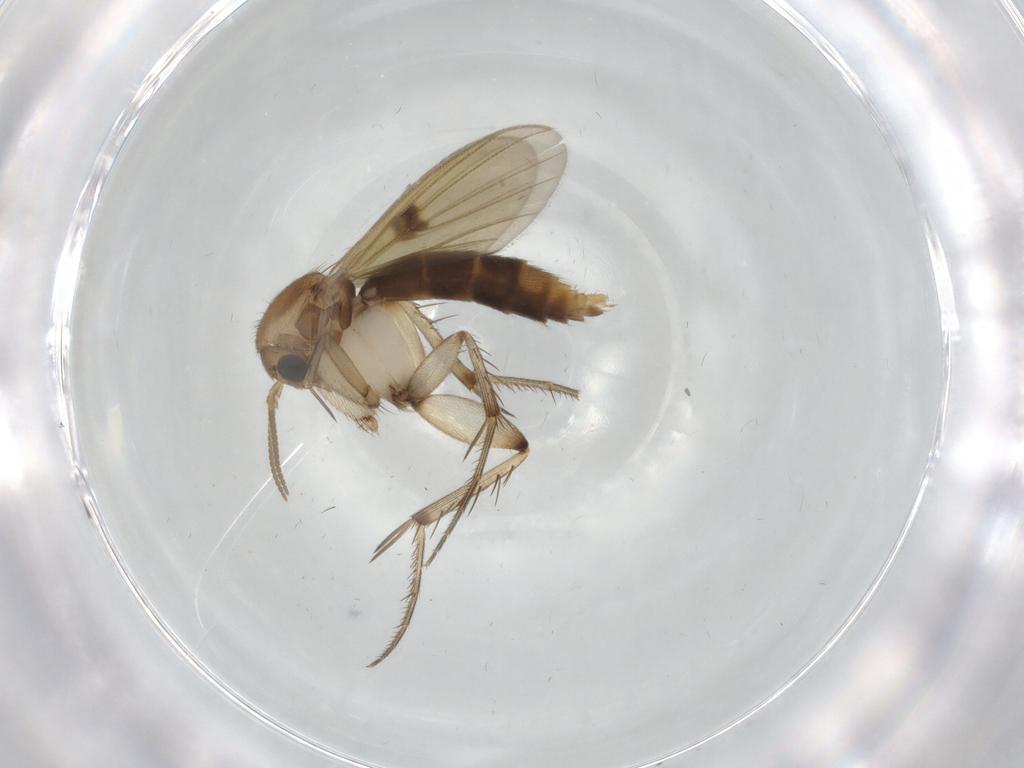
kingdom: Animalia
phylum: Arthropoda
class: Insecta
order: Diptera
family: Mycetophilidae
